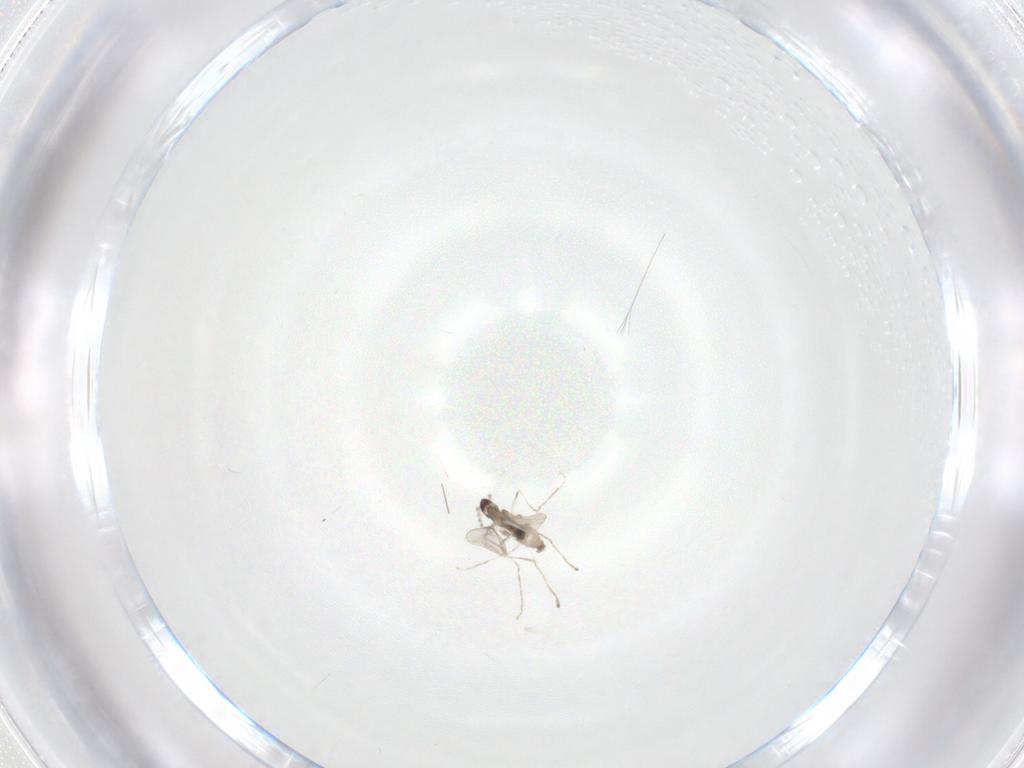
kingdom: Animalia
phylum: Arthropoda
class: Insecta
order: Diptera
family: Cecidomyiidae
